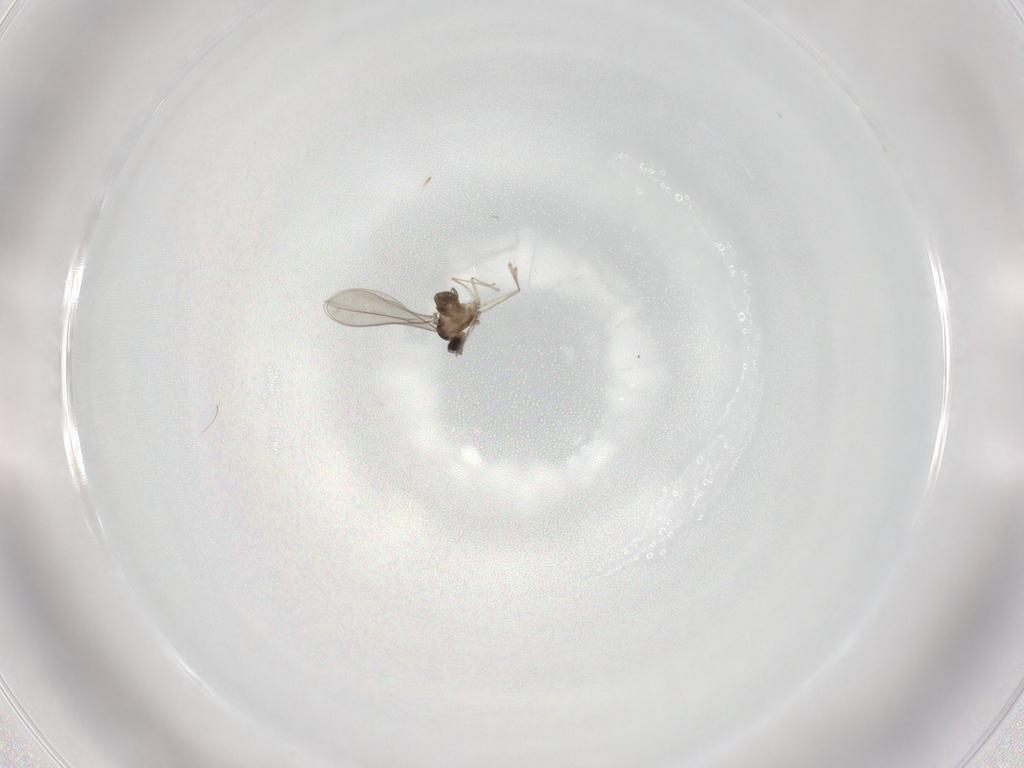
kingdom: Animalia
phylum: Arthropoda
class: Insecta
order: Diptera
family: Cecidomyiidae
